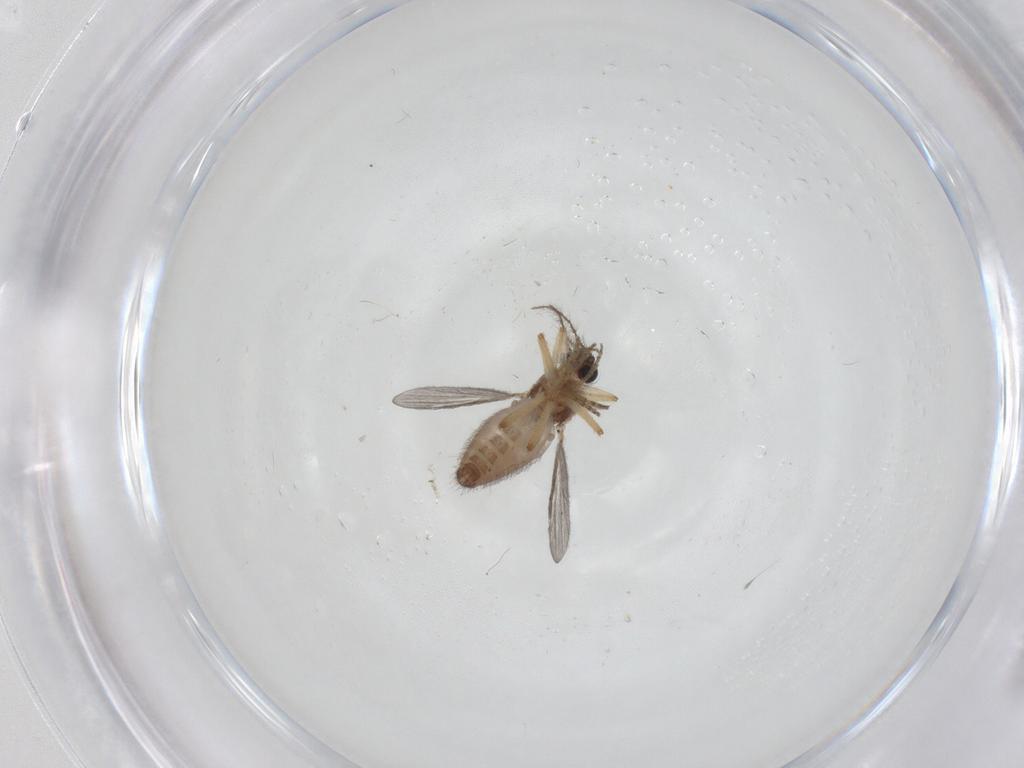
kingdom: Animalia
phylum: Arthropoda
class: Insecta
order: Diptera
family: Ceratopogonidae
